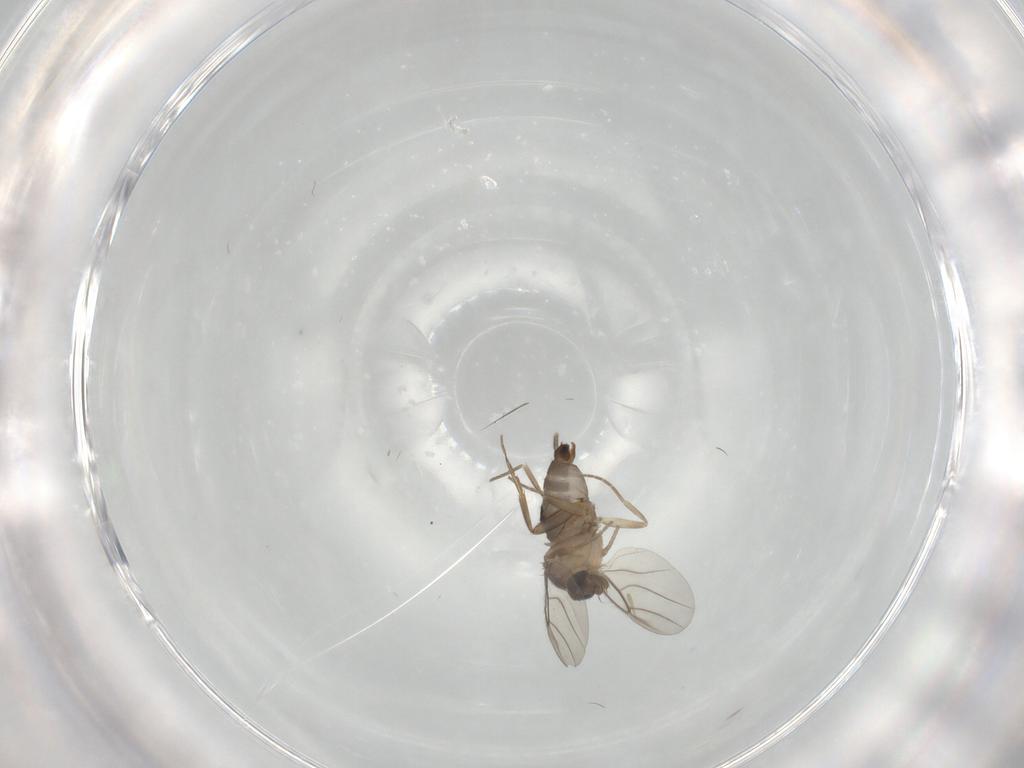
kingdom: Animalia
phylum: Arthropoda
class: Insecta
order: Diptera
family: Phoridae
